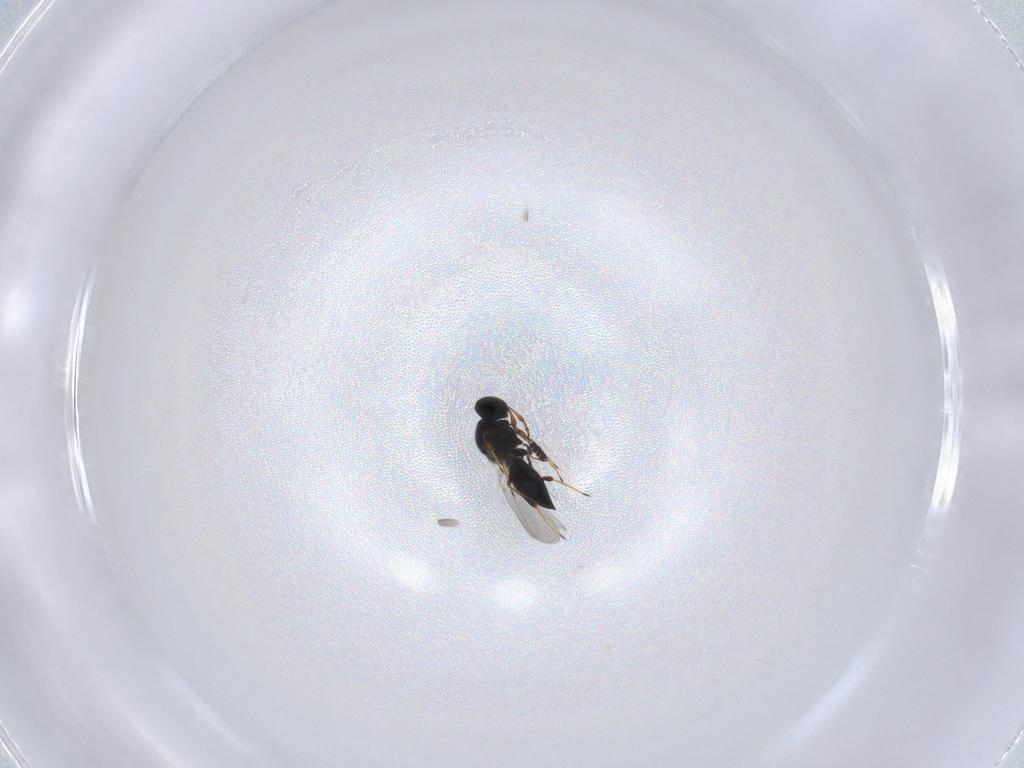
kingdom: Animalia
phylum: Arthropoda
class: Insecta
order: Hymenoptera
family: Platygastridae
